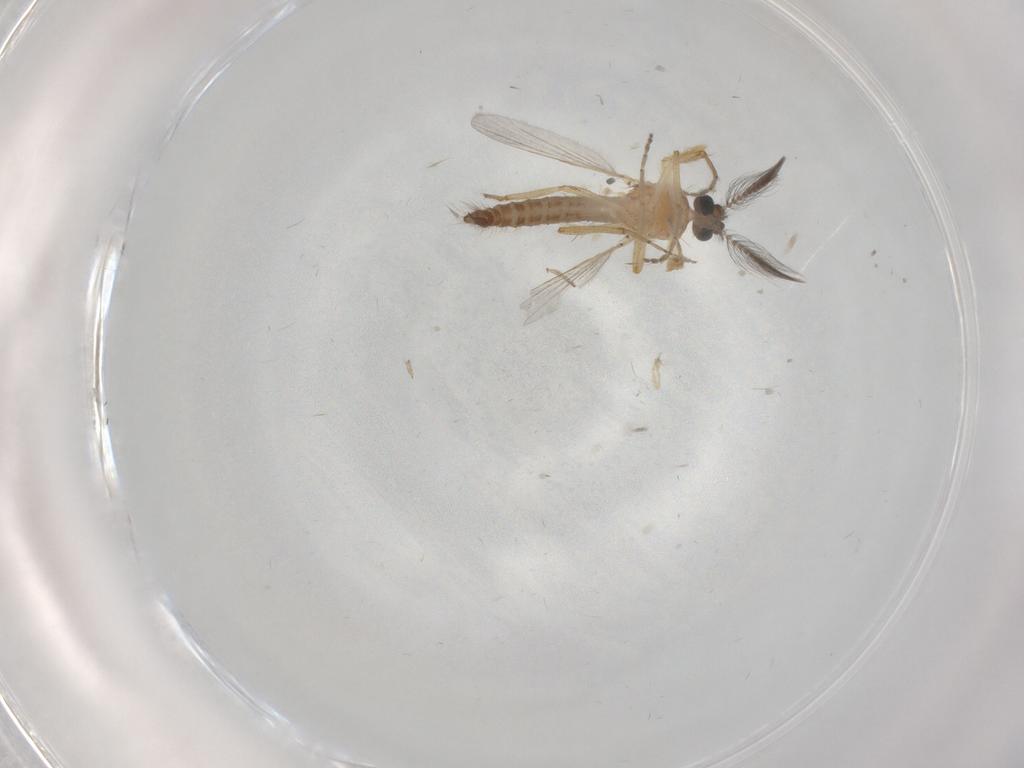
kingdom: Animalia
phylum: Arthropoda
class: Insecta
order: Diptera
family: Ceratopogonidae
